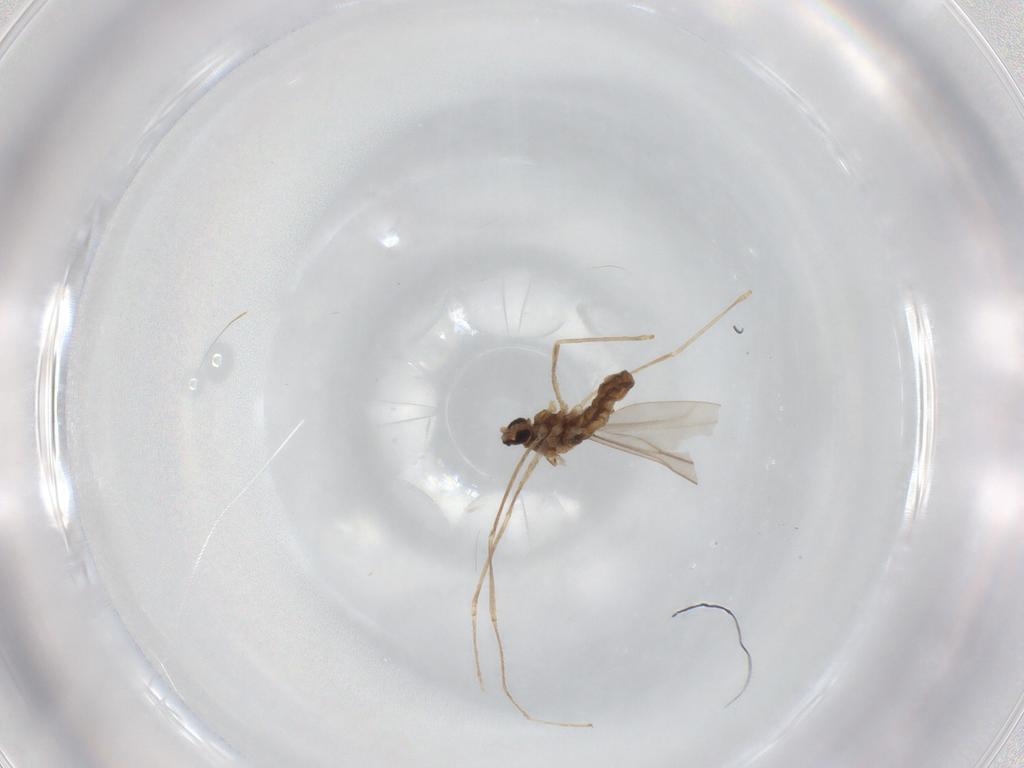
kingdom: Animalia
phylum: Arthropoda
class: Insecta
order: Diptera
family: Cecidomyiidae
